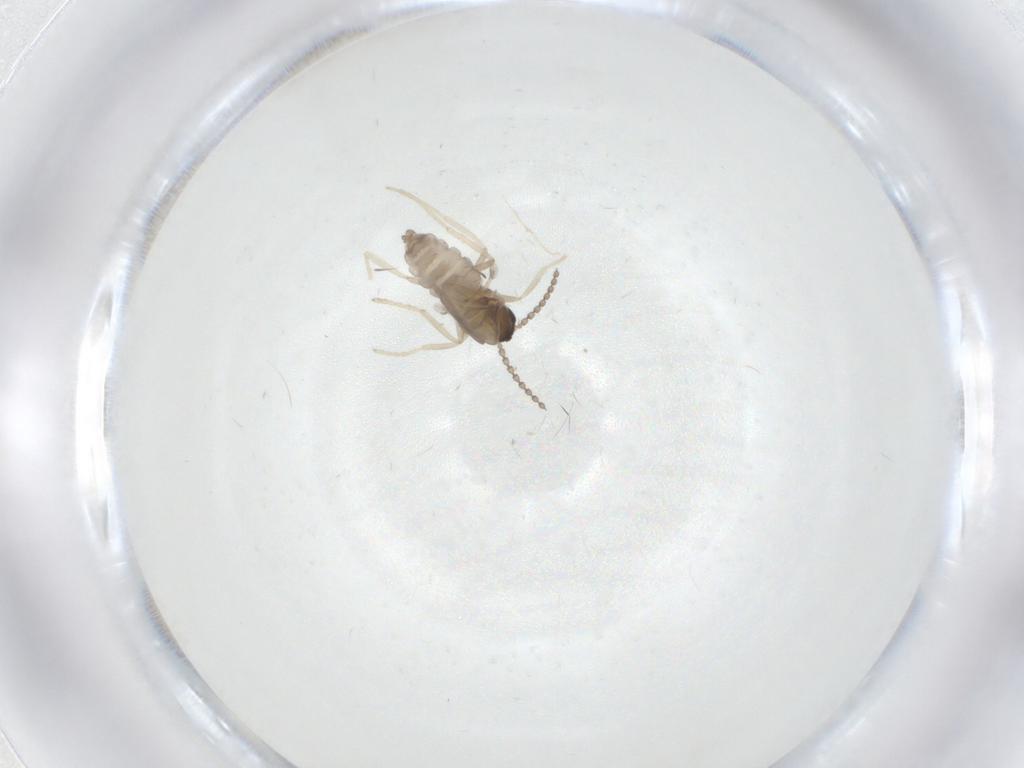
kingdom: Animalia
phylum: Arthropoda
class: Insecta
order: Diptera
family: Cecidomyiidae
